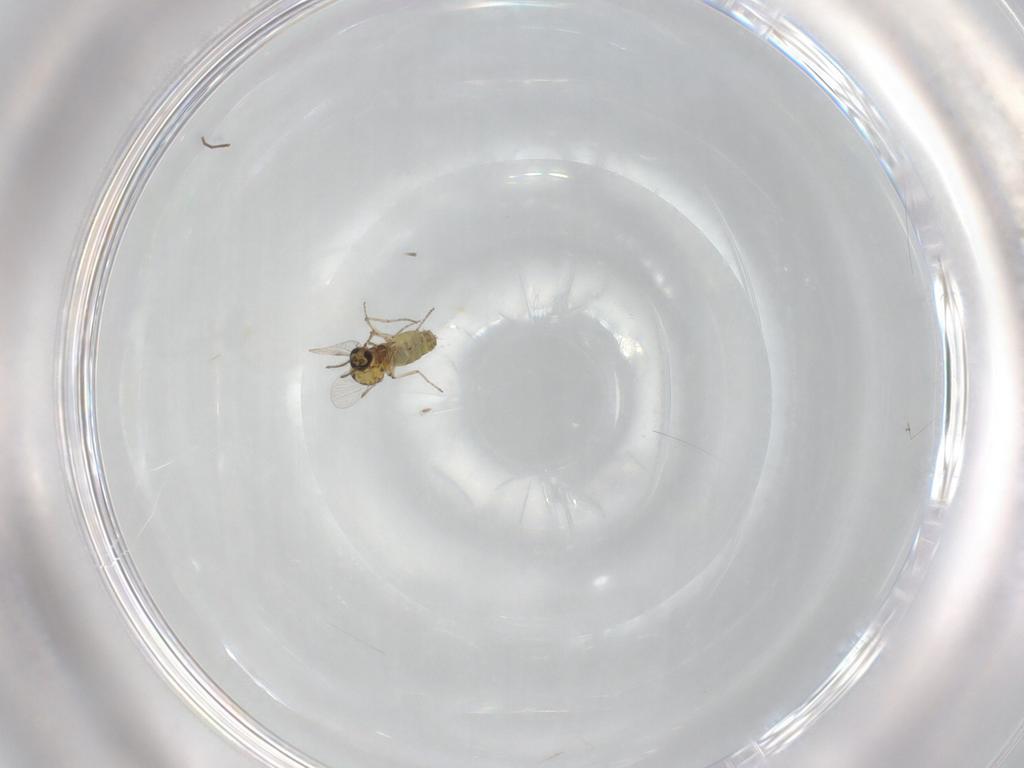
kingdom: Animalia
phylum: Arthropoda
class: Insecta
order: Diptera
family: Chironomidae
